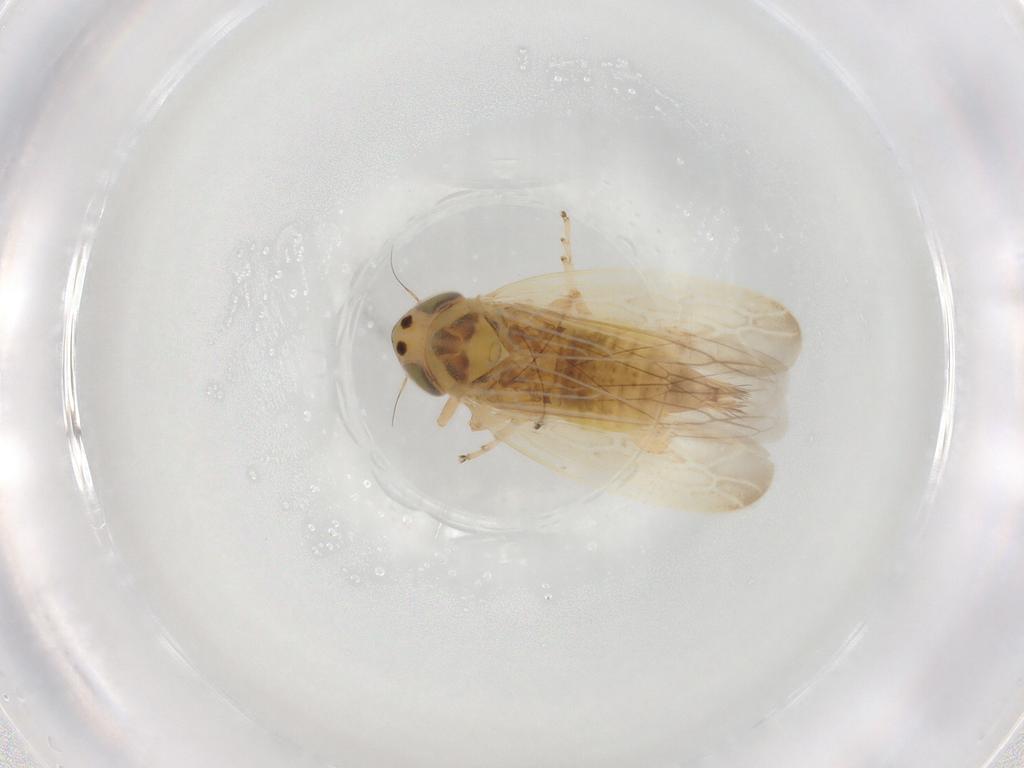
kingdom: Animalia
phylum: Arthropoda
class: Insecta
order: Hemiptera
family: Cicadellidae
